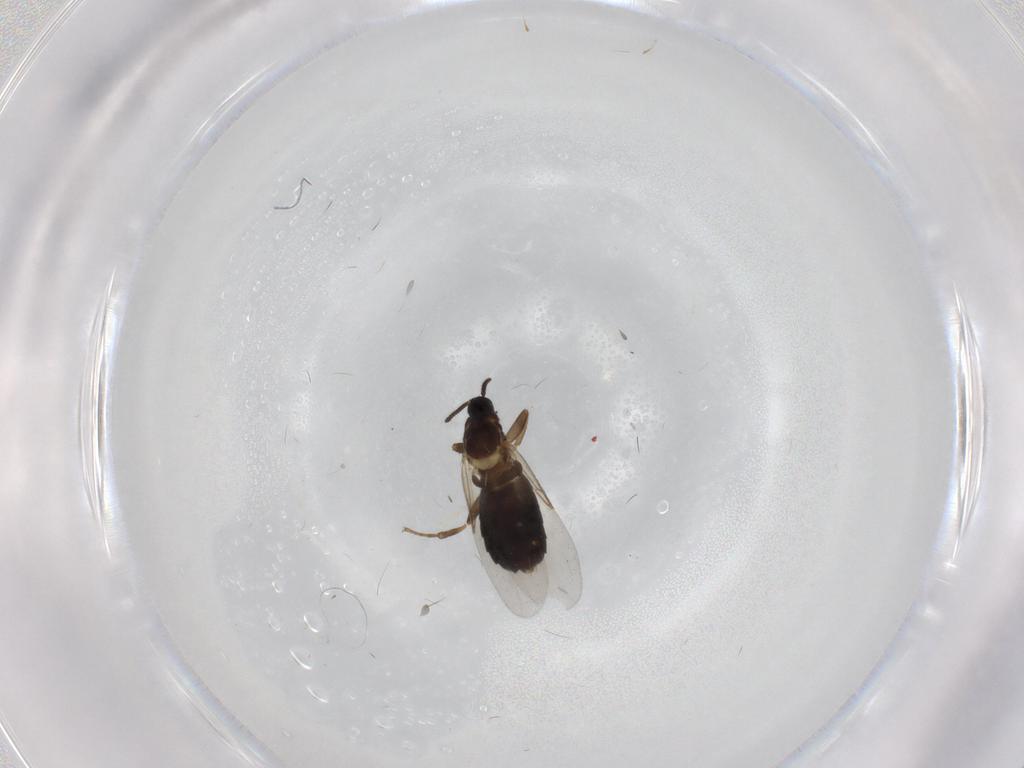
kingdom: Animalia
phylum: Arthropoda
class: Insecta
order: Diptera
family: Scatopsidae
